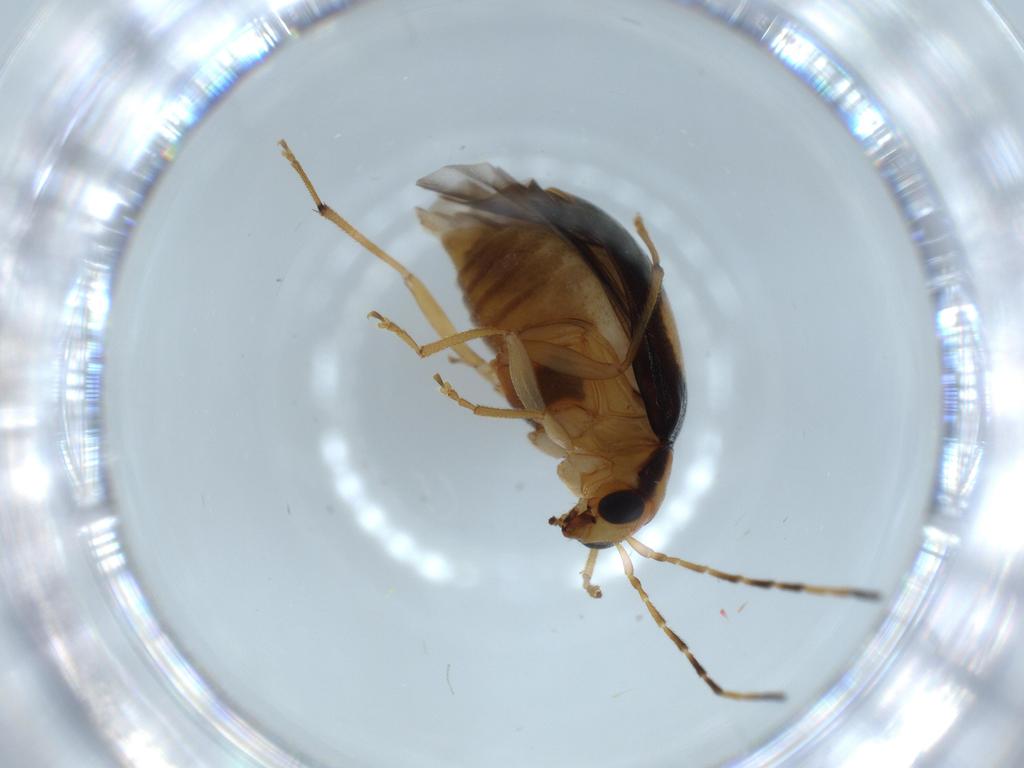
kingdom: Animalia
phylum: Arthropoda
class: Insecta
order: Coleoptera
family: Chrysomelidae
